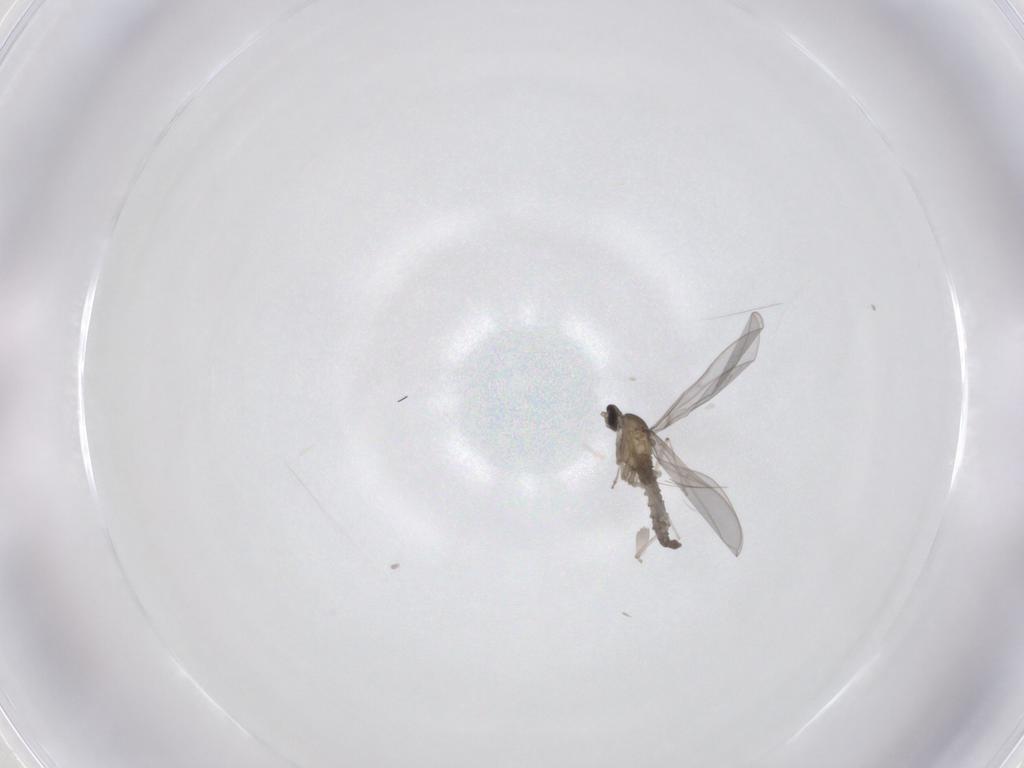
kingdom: Animalia
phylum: Arthropoda
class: Insecta
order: Diptera
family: Cecidomyiidae
